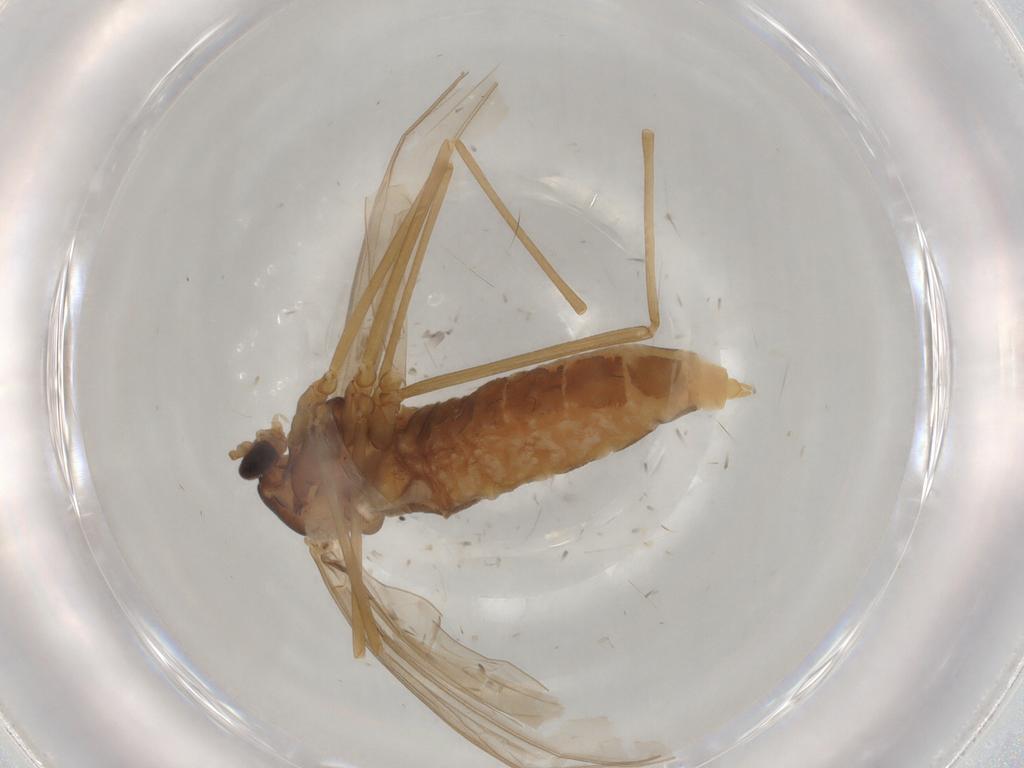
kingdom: Animalia
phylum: Arthropoda
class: Insecta
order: Diptera
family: Cecidomyiidae
